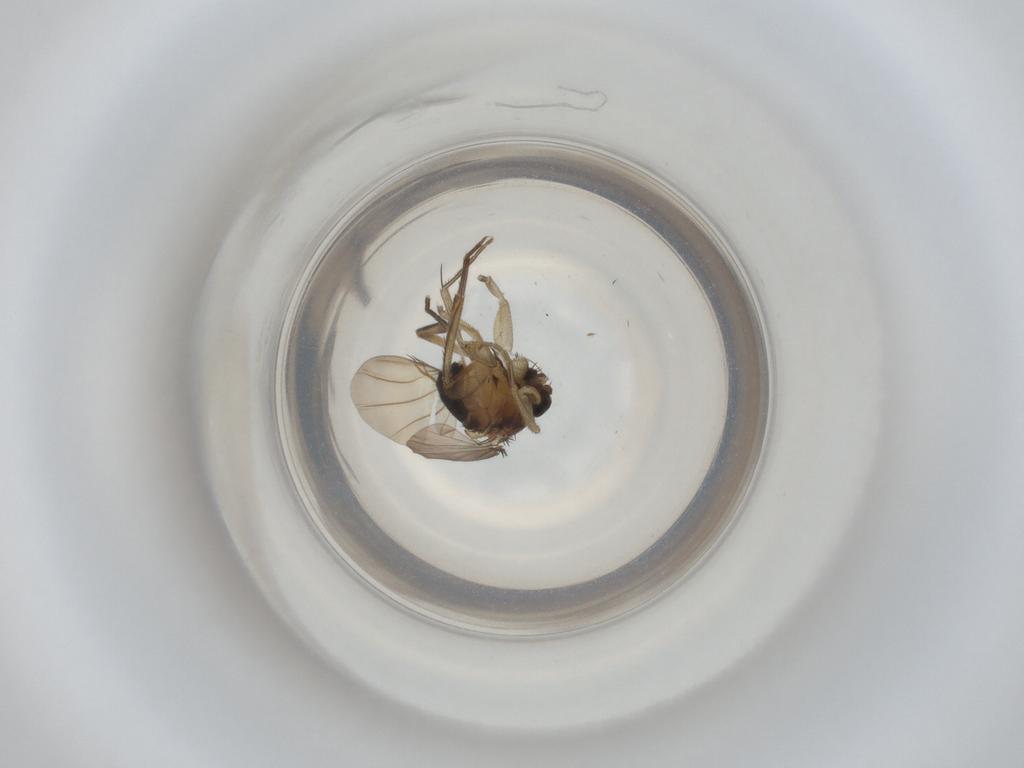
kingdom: Animalia
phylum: Arthropoda
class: Insecta
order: Diptera
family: Phoridae
